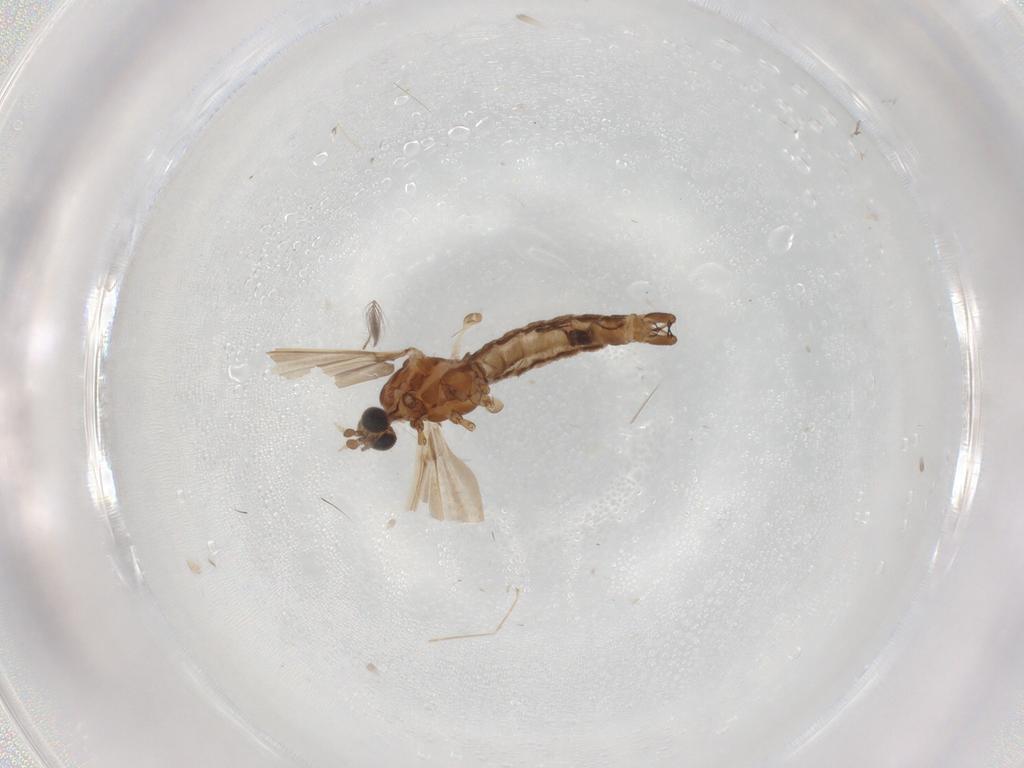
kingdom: Animalia
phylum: Arthropoda
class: Insecta
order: Diptera
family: Limoniidae
